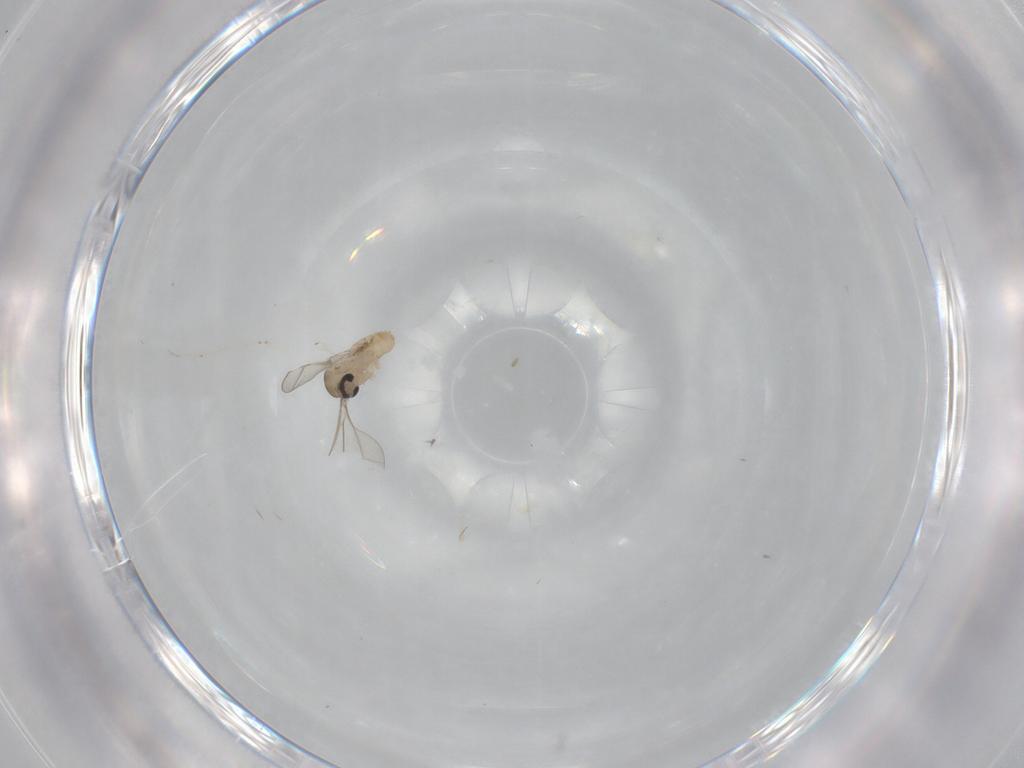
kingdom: Animalia
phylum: Arthropoda
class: Insecta
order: Diptera
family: Cecidomyiidae
